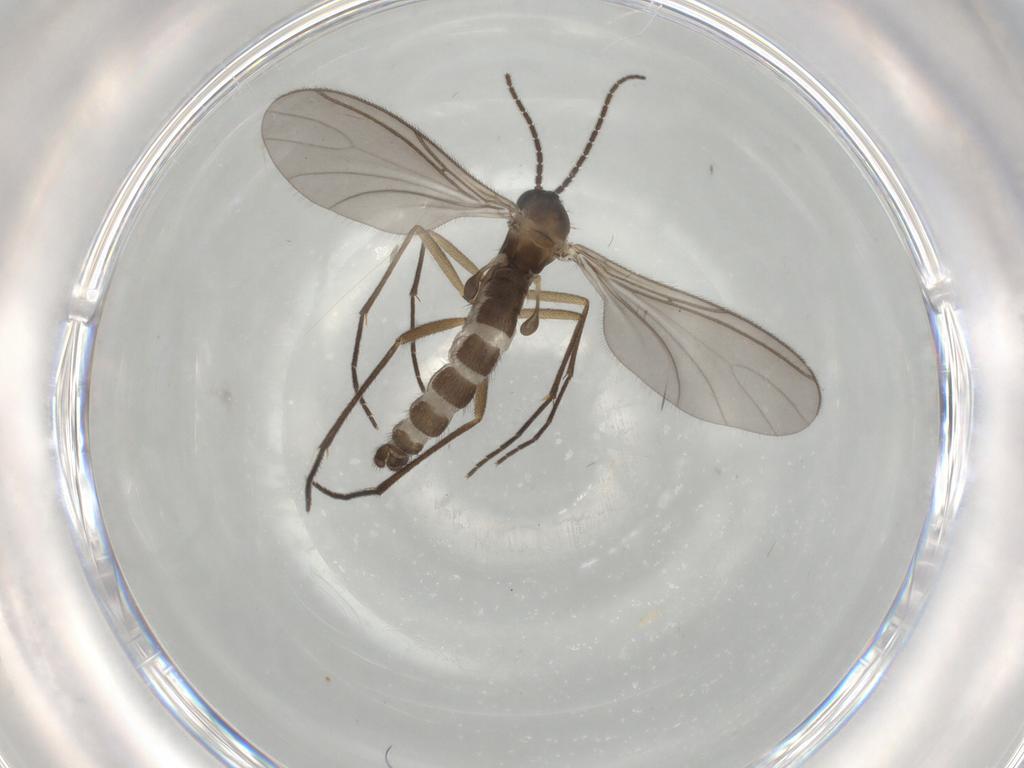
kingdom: Animalia
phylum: Arthropoda
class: Insecta
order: Diptera
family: Sciaridae
